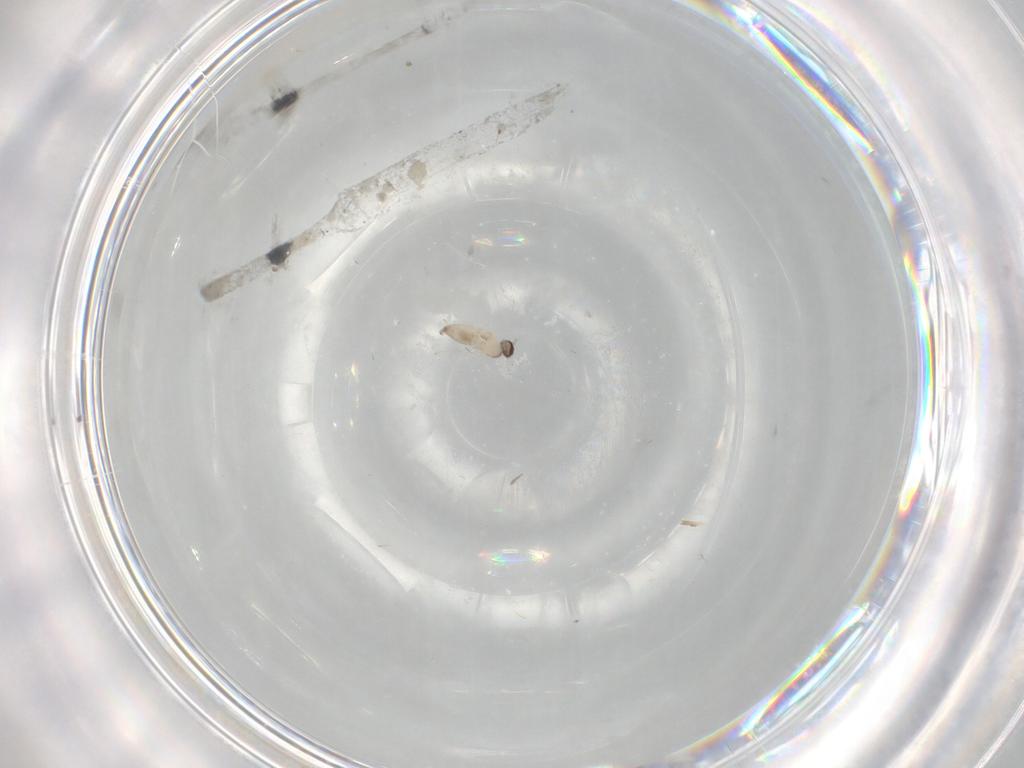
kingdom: Animalia
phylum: Arthropoda
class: Insecta
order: Diptera
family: Cecidomyiidae
